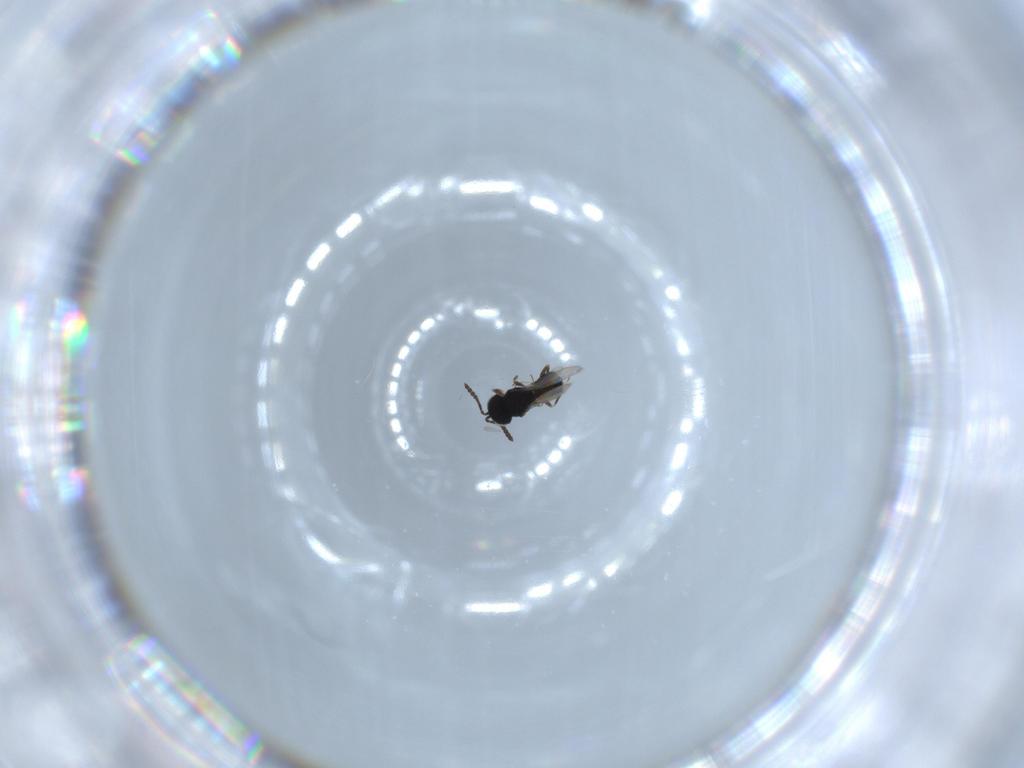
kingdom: Animalia
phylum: Arthropoda
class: Insecta
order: Hymenoptera
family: Scelionidae
